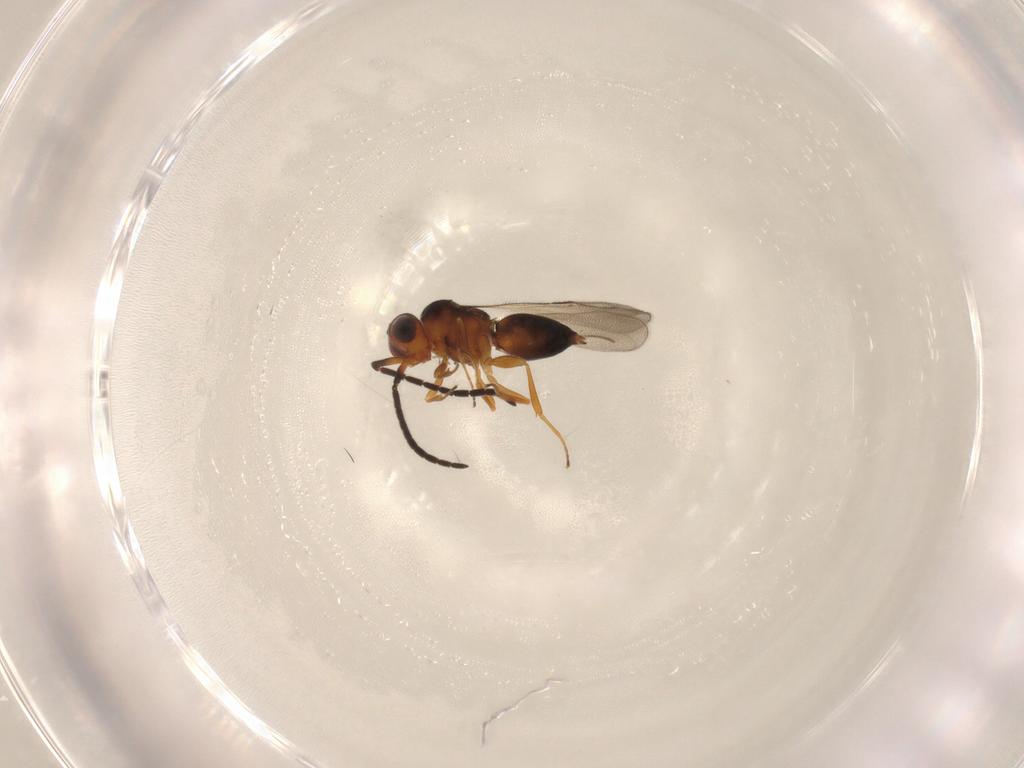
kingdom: Animalia
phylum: Arthropoda
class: Insecta
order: Hymenoptera
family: Ceraphronidae
